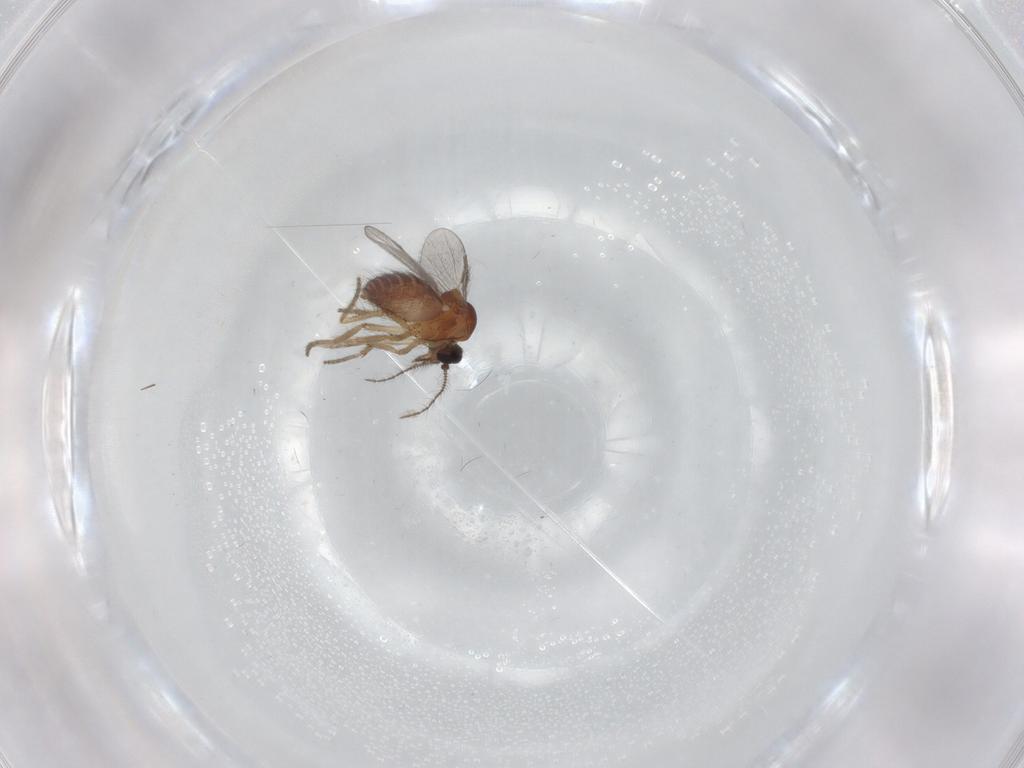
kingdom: Animalia
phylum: Arthropoda
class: Insecta
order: Diptera
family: Ceratopogonidae
